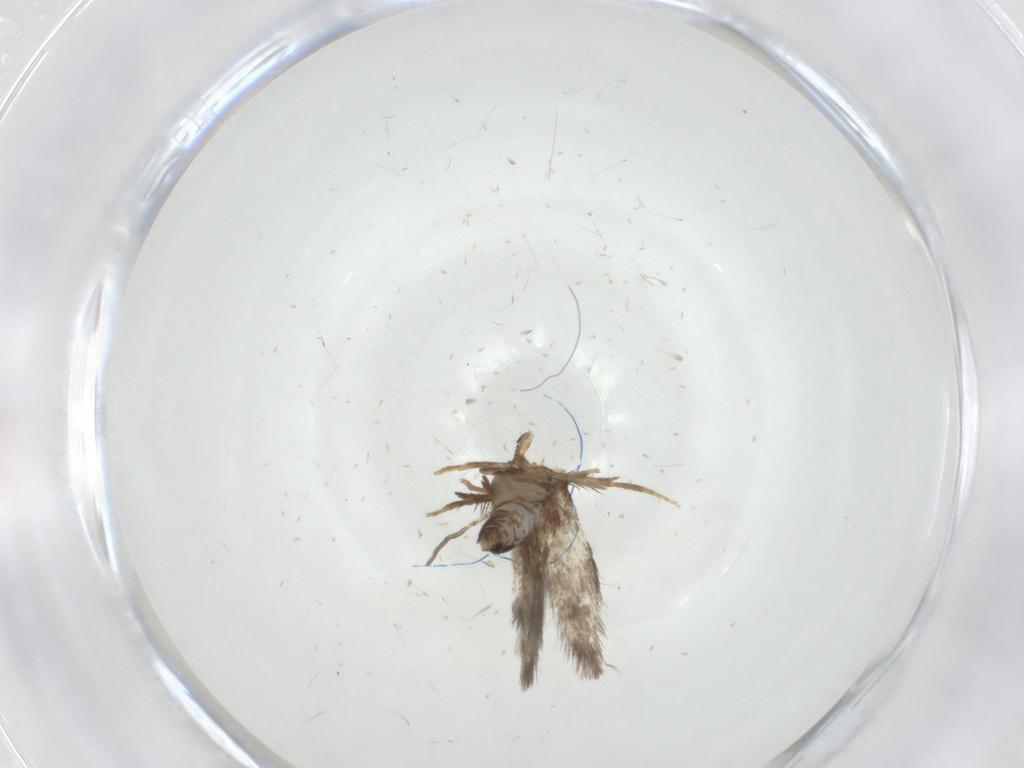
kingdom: Animalia
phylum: Arthropoda
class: Insecta
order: Lepidoptera
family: Nepticulidae
